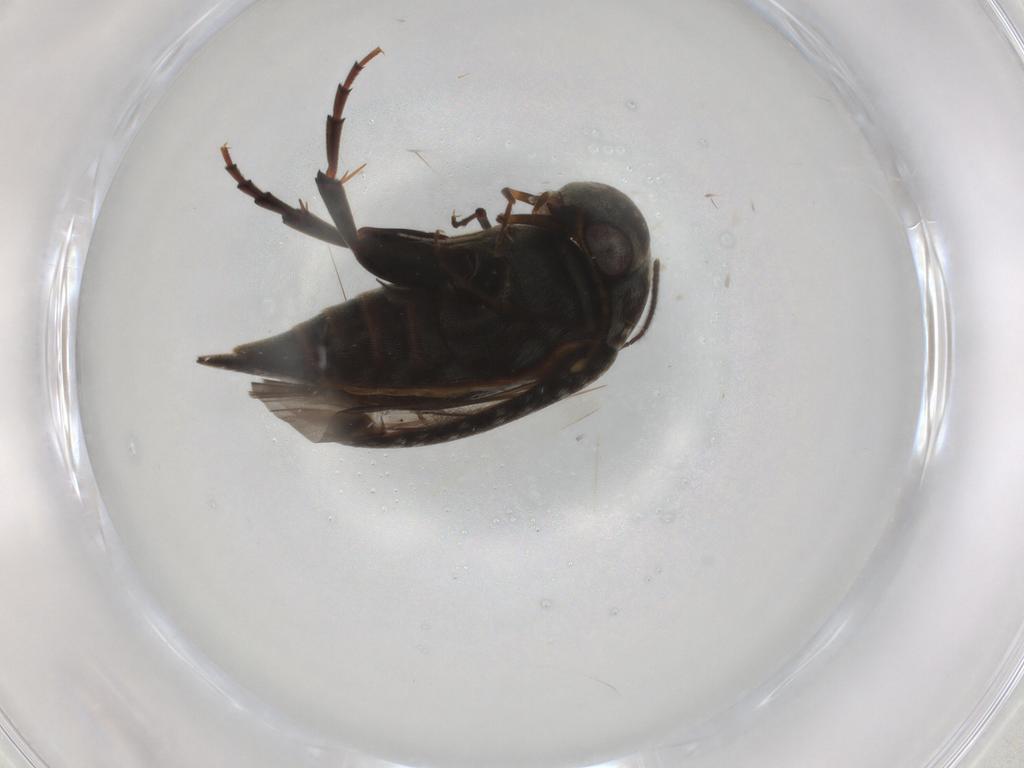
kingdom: Animalia
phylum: Arthropoda
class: Insecta
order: Coleoptera
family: Mordellidae
